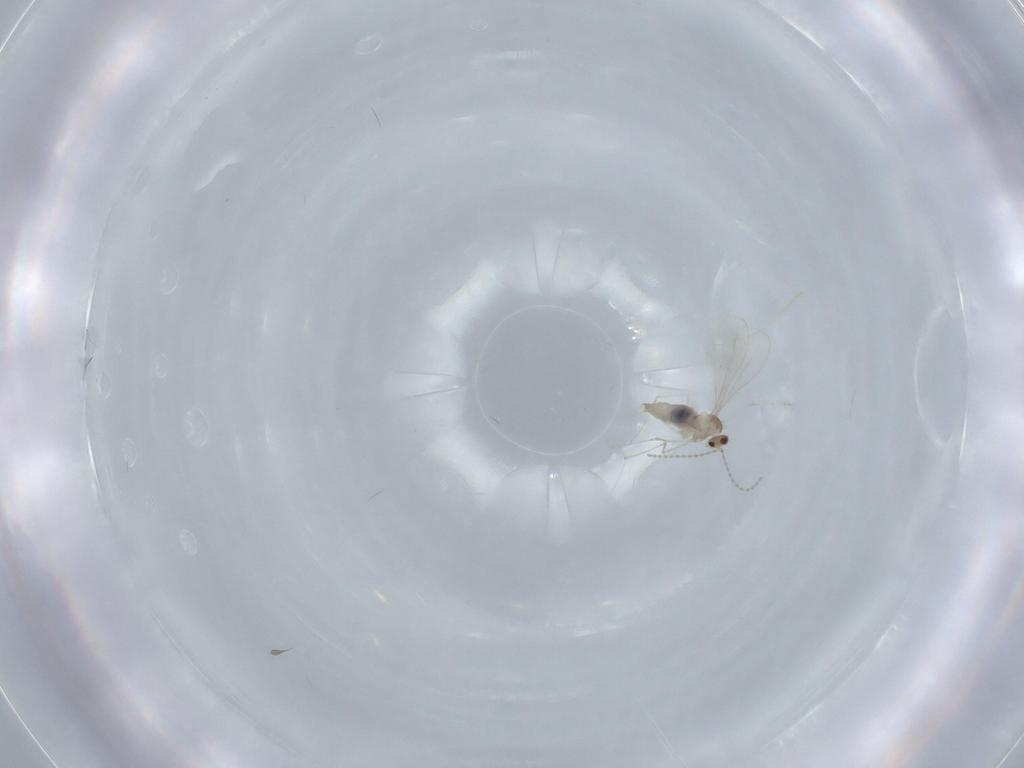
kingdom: Animalia
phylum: Arthropoda
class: Insecta
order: Diptera
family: Cecidomyiidae
